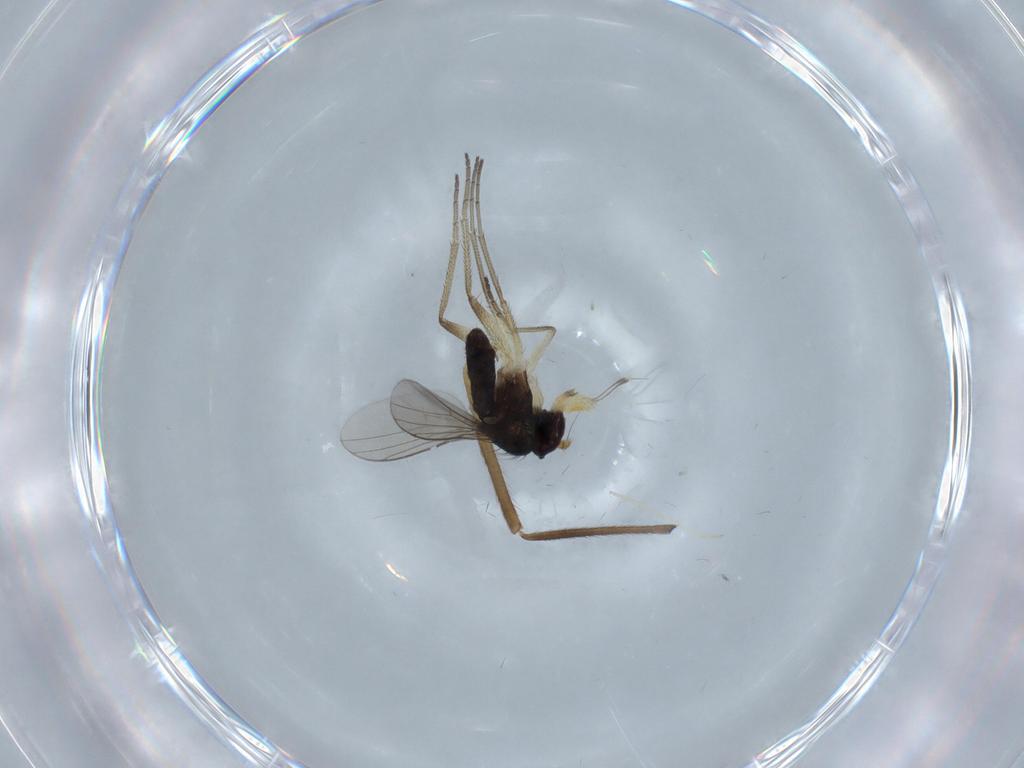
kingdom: Animalia
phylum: Arthropoda
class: Insecta
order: Diptera
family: Dolichopodidae
